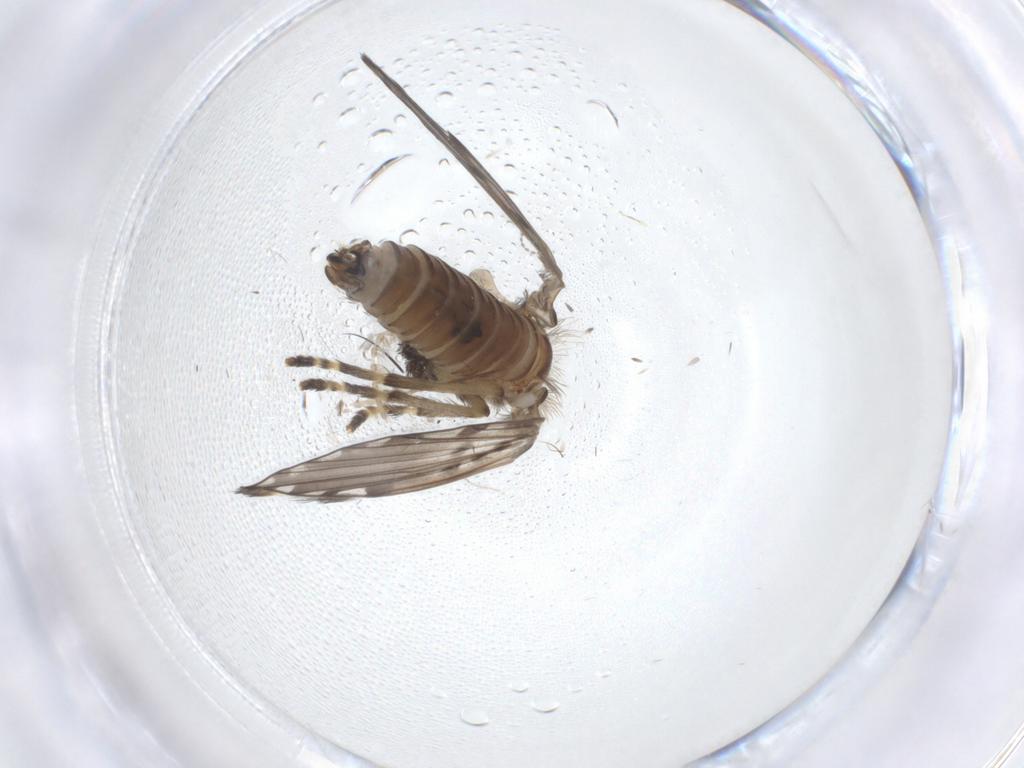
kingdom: Animalia
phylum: Arthropoda
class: Insecta
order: Diptera
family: Psychodidae
